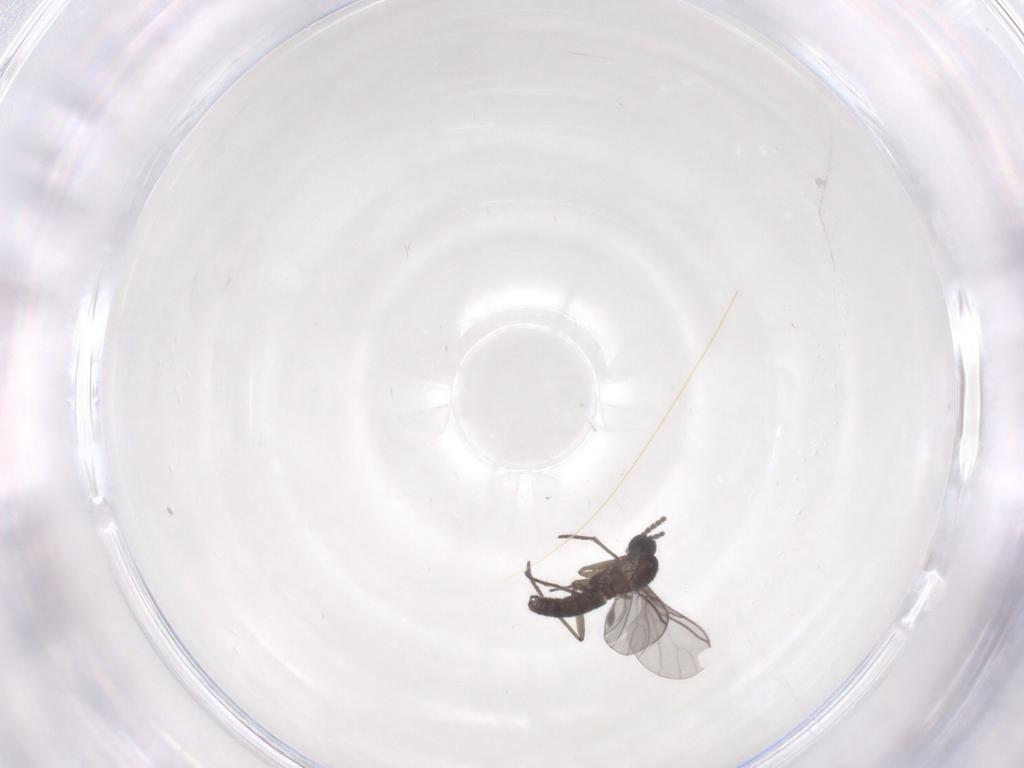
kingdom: Animalia
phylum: Arthropoda
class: Insecta
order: Diptera
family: Sciaridae
